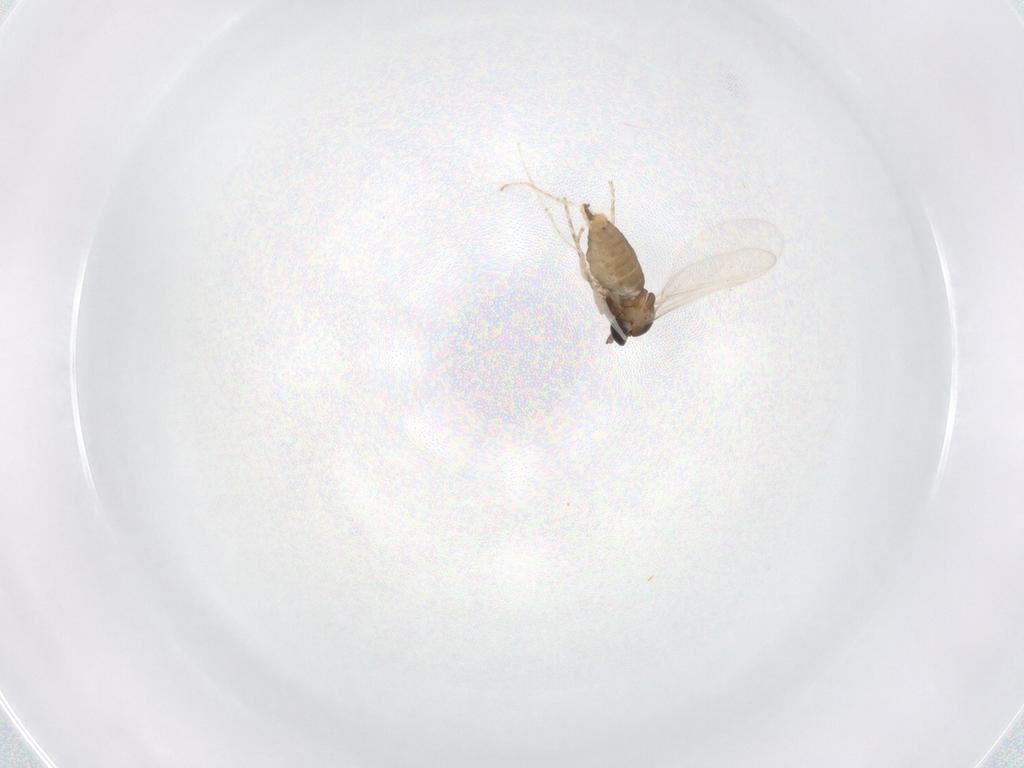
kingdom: Animalia
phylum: Arthropoda
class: Insecta
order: Diptera
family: Cecidomyiidae
